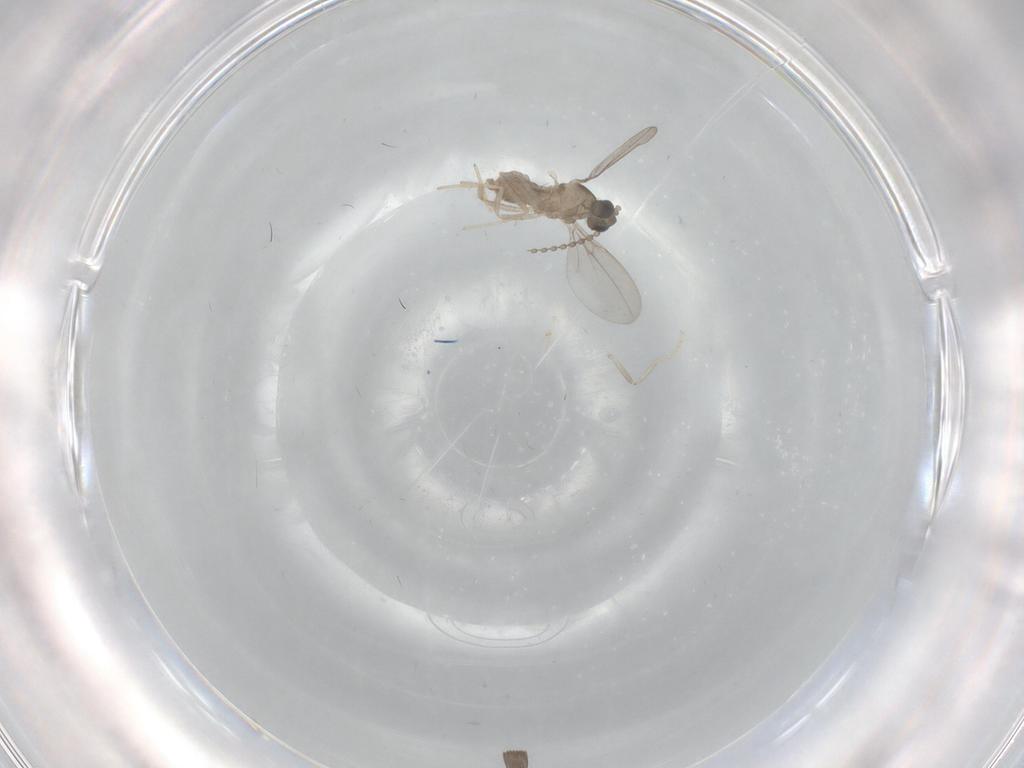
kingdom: Animalia
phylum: Arthropoda
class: Insecta
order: Diptera
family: Cecidomyiidae
